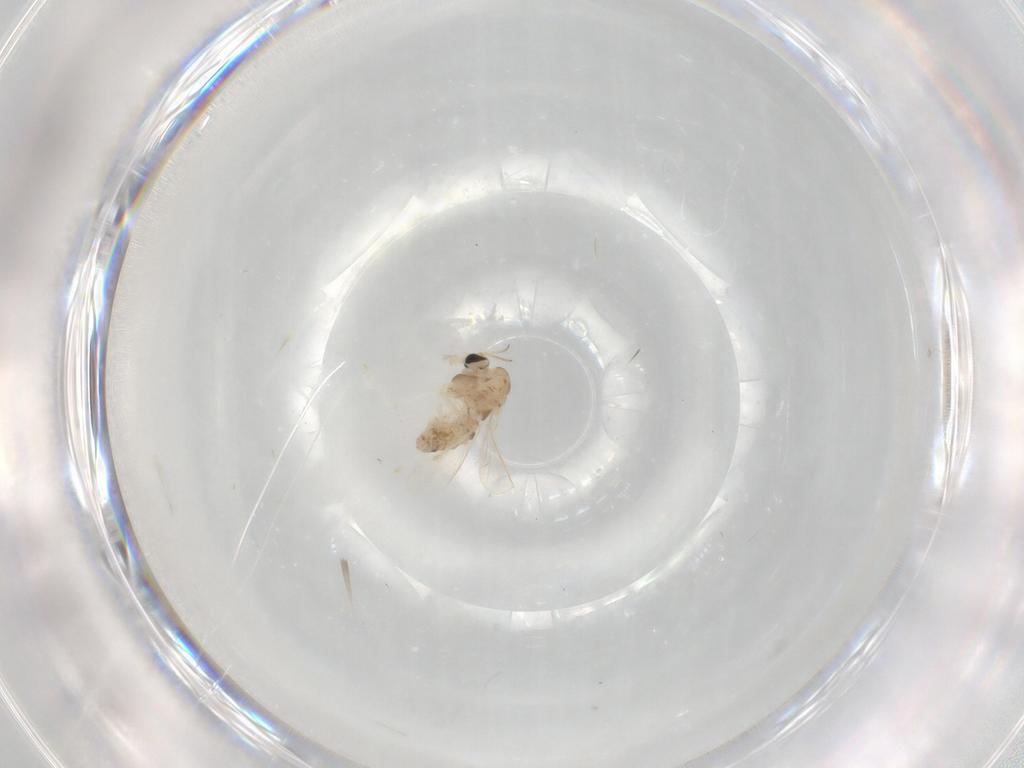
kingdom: Animalia
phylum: Arthropoda
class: Insecta
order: Diptera
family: Chironomidae
